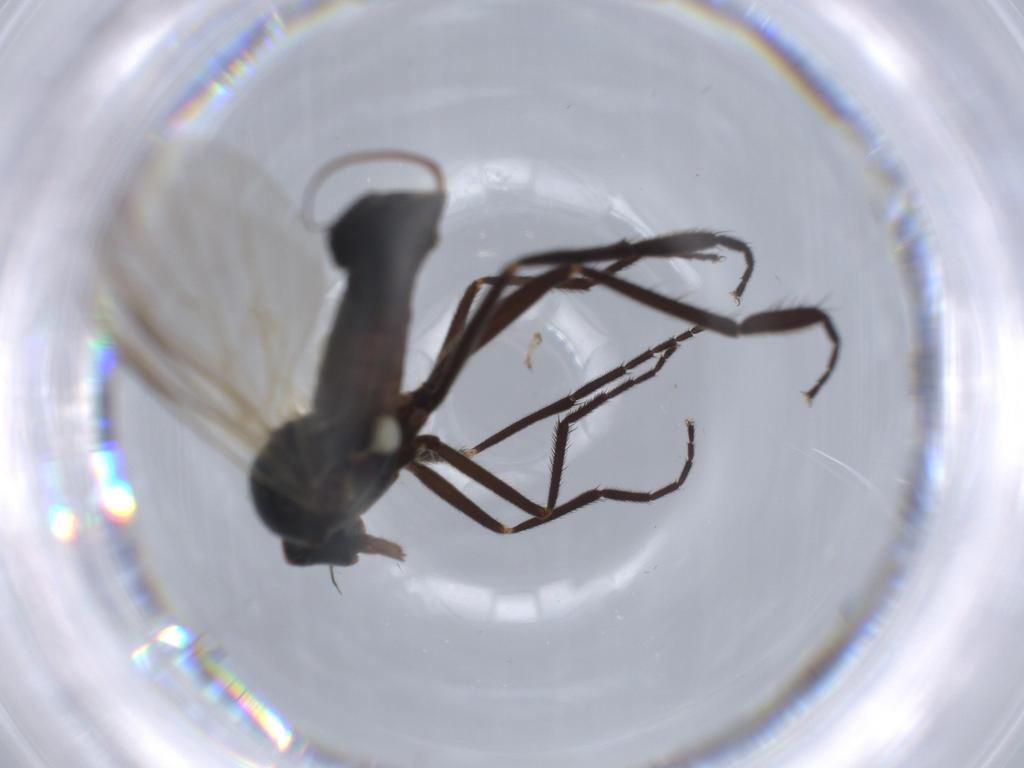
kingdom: Animalia
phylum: Arthropoda
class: Insecta
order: Diptera
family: Empididae
